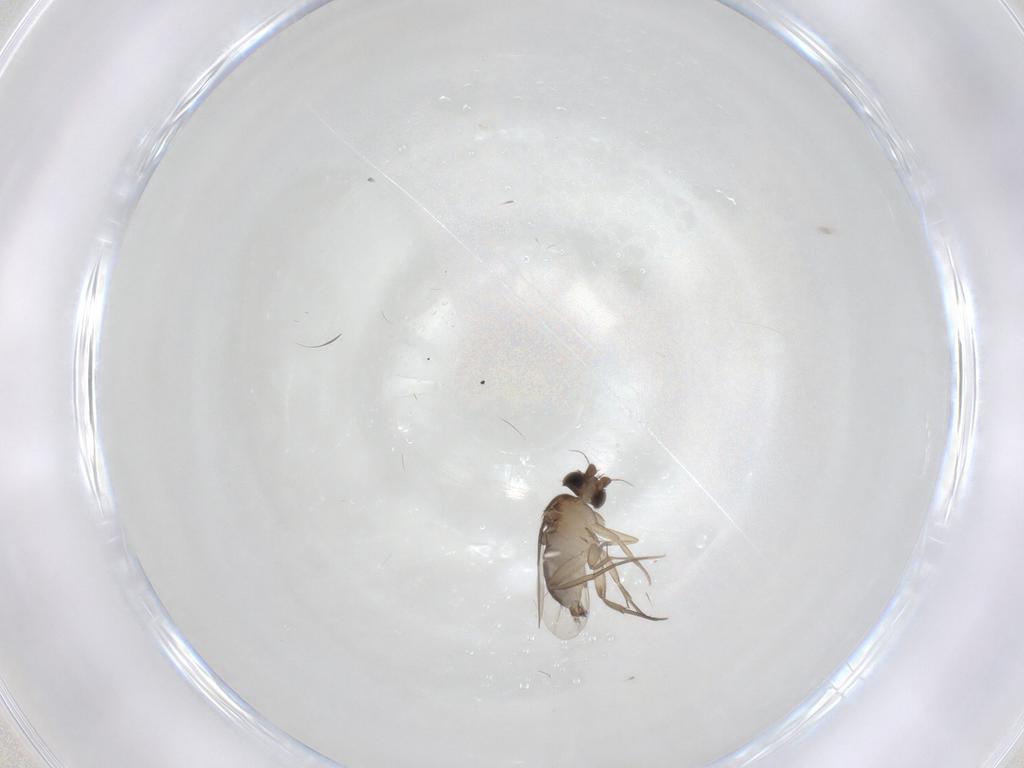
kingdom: Animalia
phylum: Arthropoda
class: Insecta
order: Diptera
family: Phoridae
